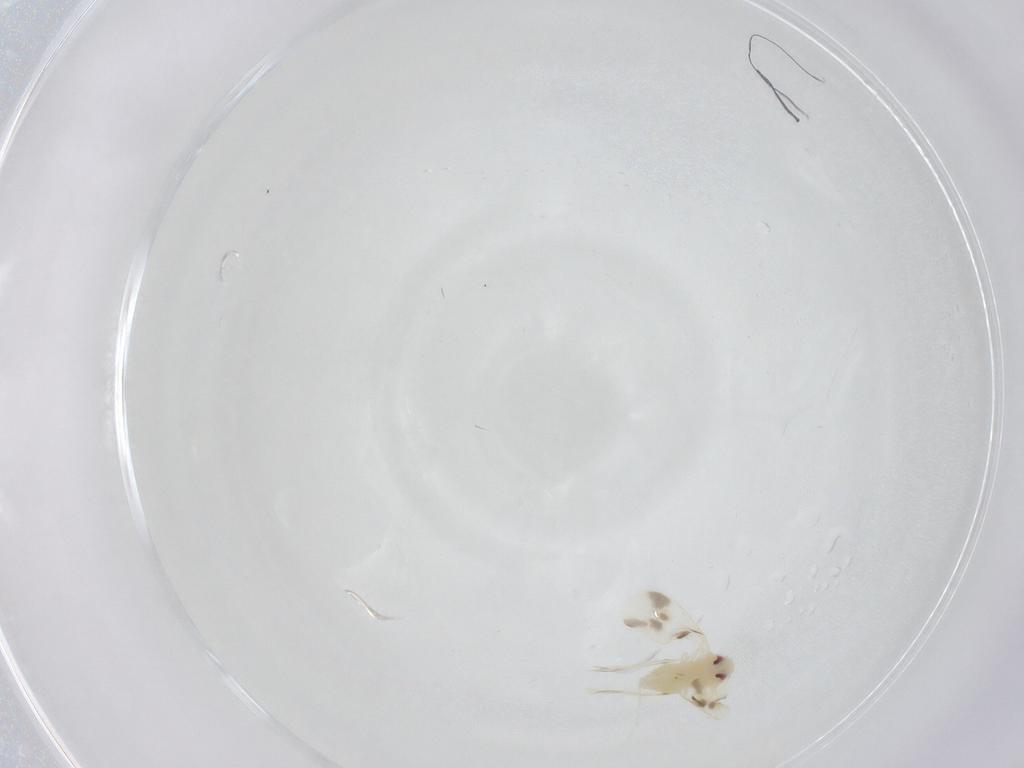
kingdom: Animalia
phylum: Arthropoda
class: Insecta
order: Hemiptera
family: Aleyrodidae
